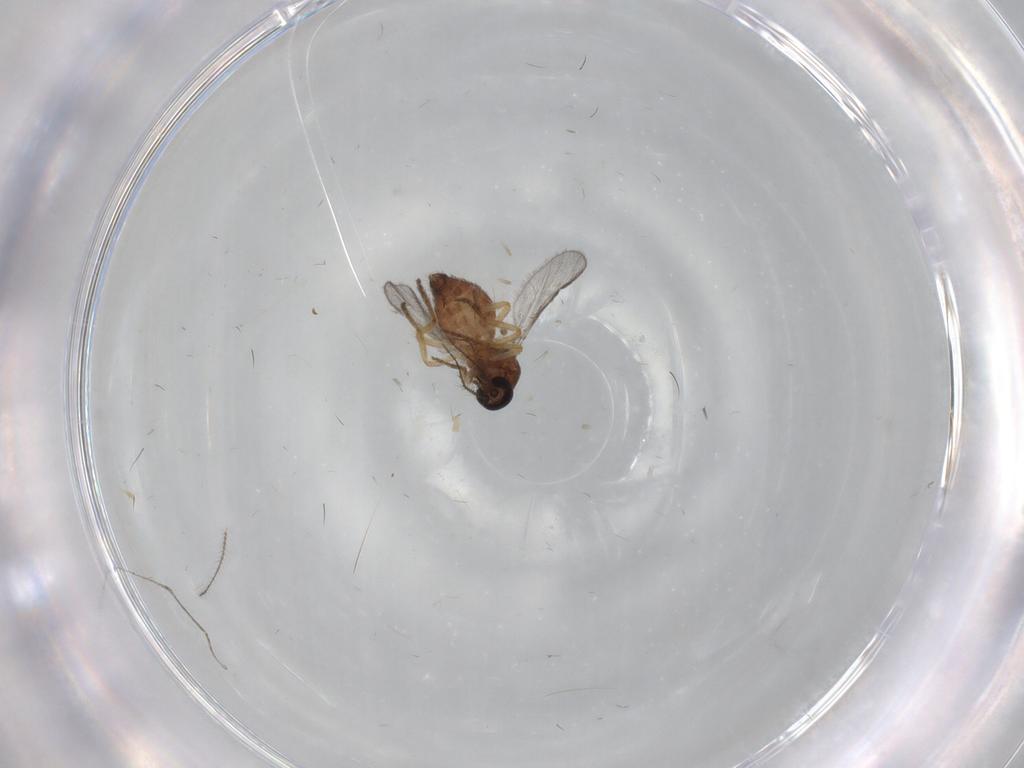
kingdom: Animalia
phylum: Arthropoda
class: Insecta
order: Diptera
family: Ceratopogonidae
